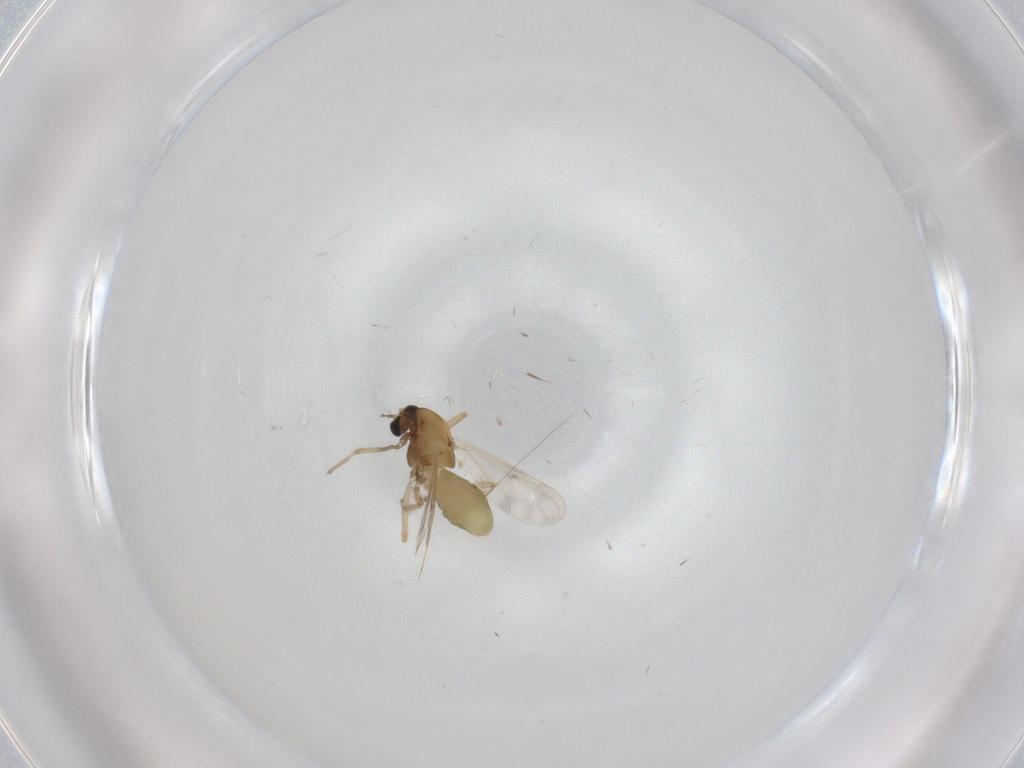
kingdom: Animalia
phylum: Arthropoda
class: Insecta
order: Diptera
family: Chironomidae
